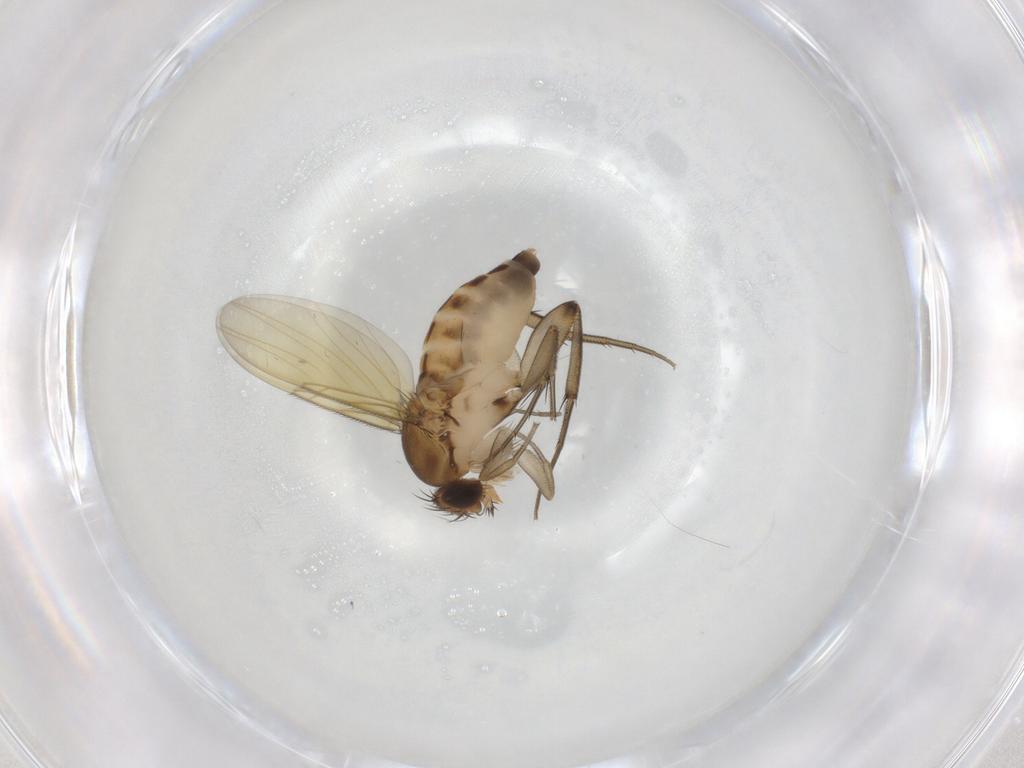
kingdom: Animalia
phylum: Arthropoda
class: Insecta
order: Diptera
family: Phoridae
